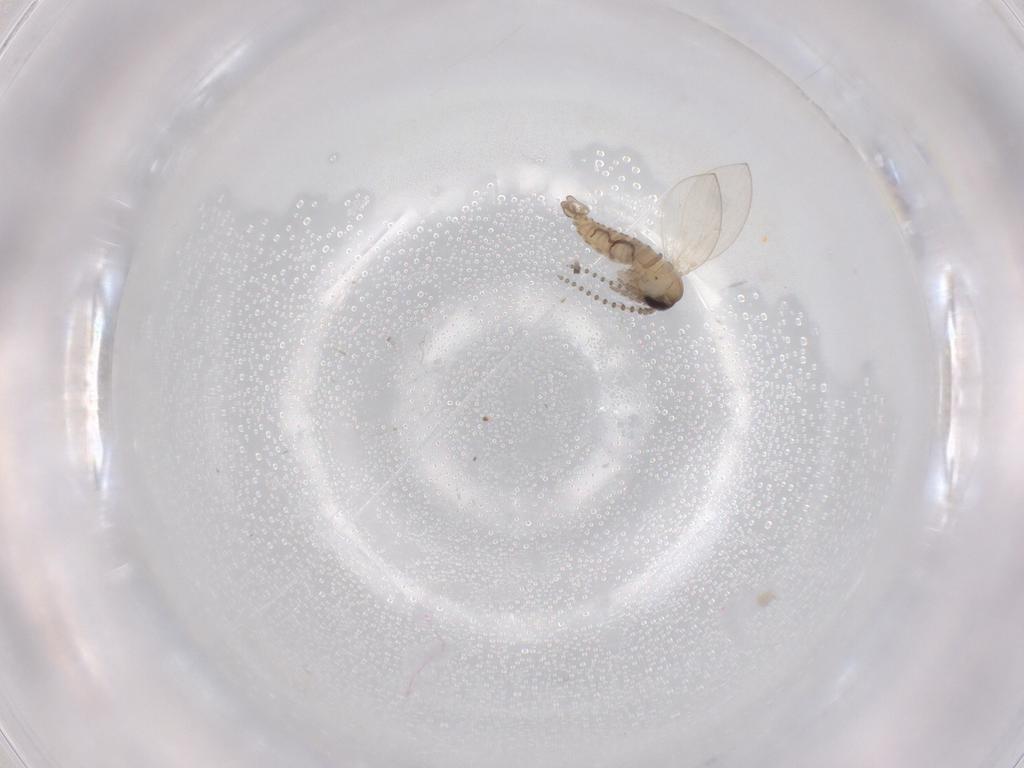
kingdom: Animalia
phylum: Arthropoda
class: Insecta
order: Diptera
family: Psychodidae
